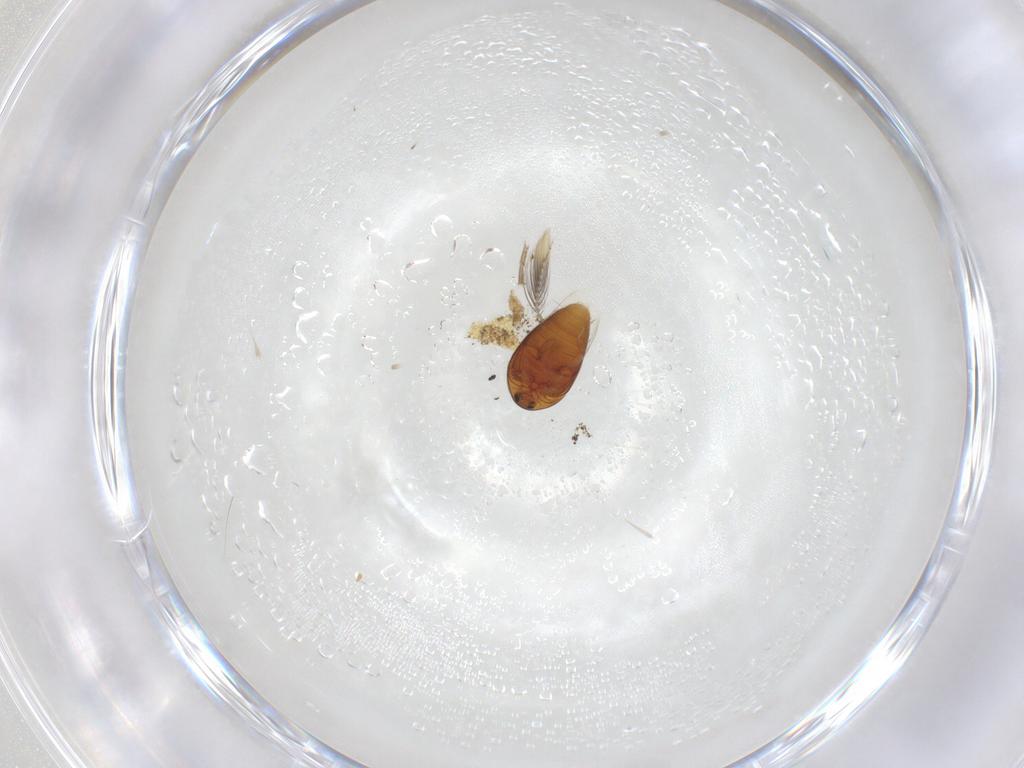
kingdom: Animalia
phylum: Arthropoda
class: Insecta
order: Coleoptera
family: Corylophidae
